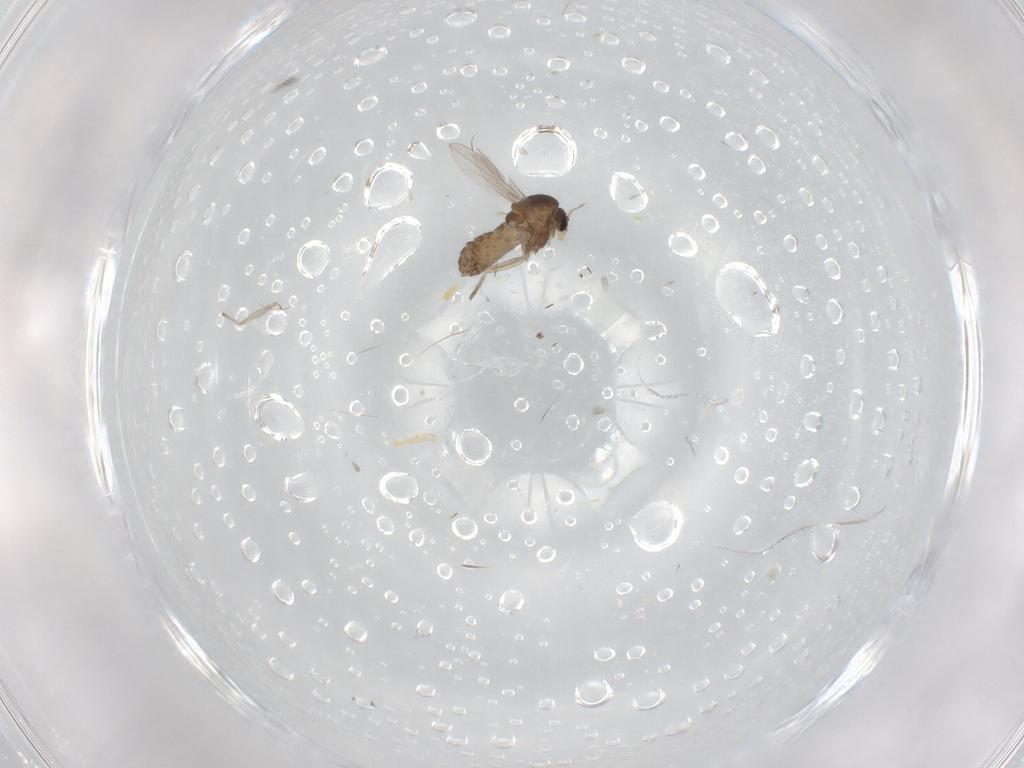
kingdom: Animalia
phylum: Arthropoda
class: Insecta
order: Diptera
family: Chironomidae
